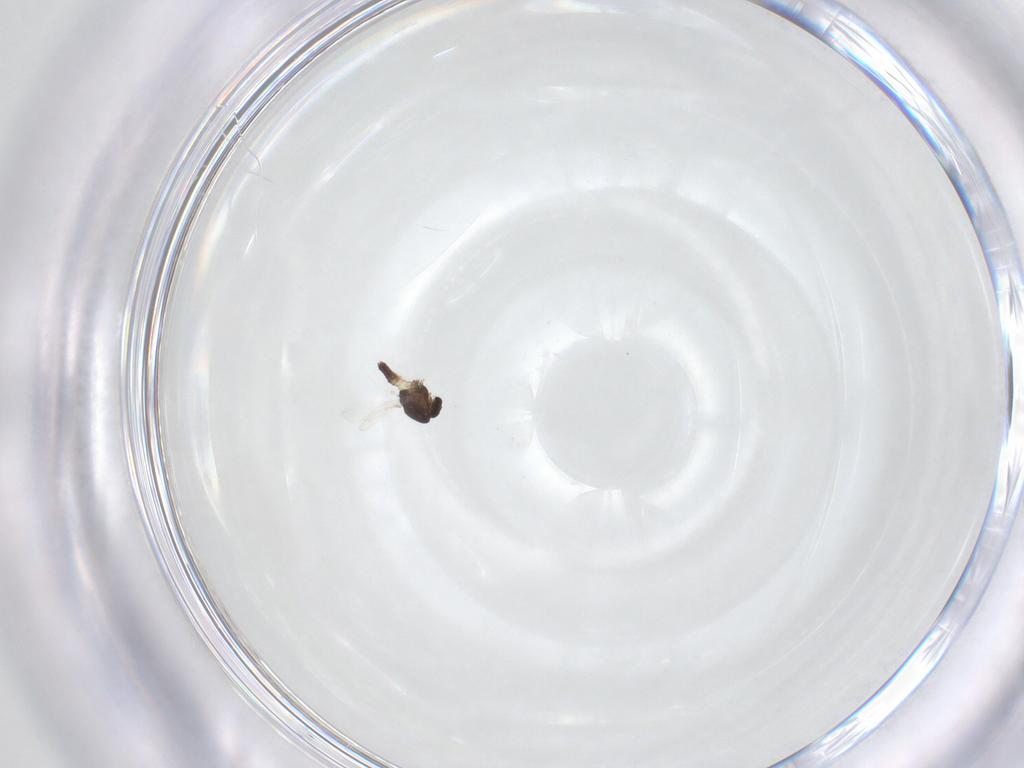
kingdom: Animalia
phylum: Arthropoda
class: Insecta
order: Diptera
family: Chironomidae
